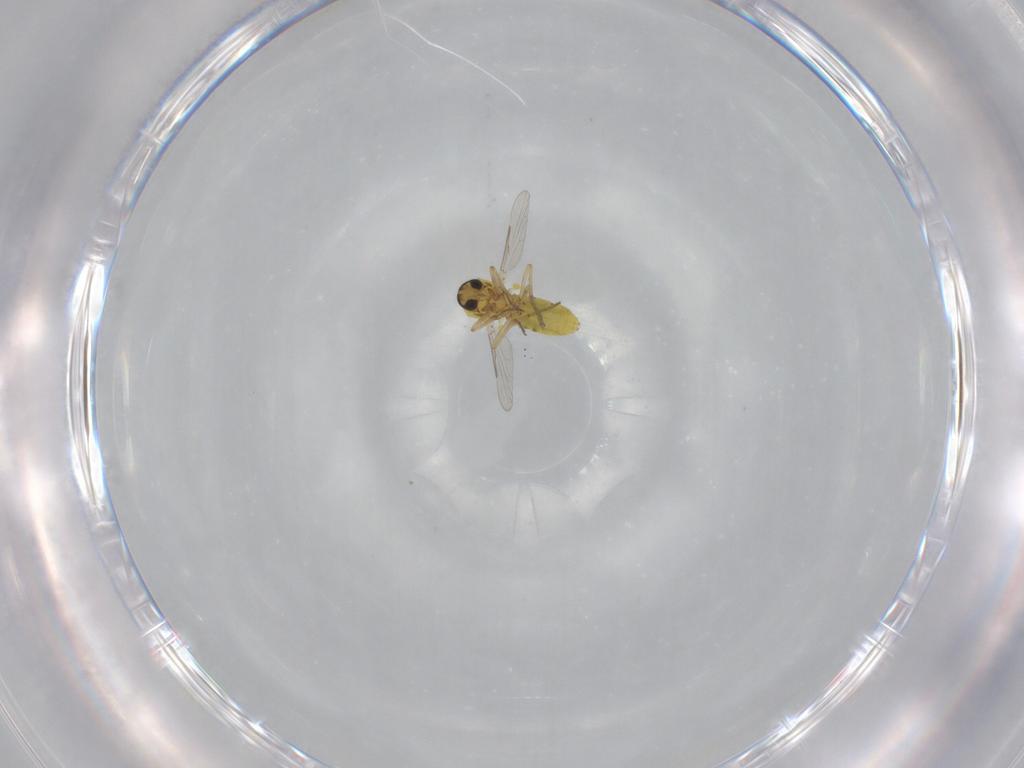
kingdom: Animalia
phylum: Arthropoda
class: Insecta
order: Diptera
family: Ceratopogonidae
